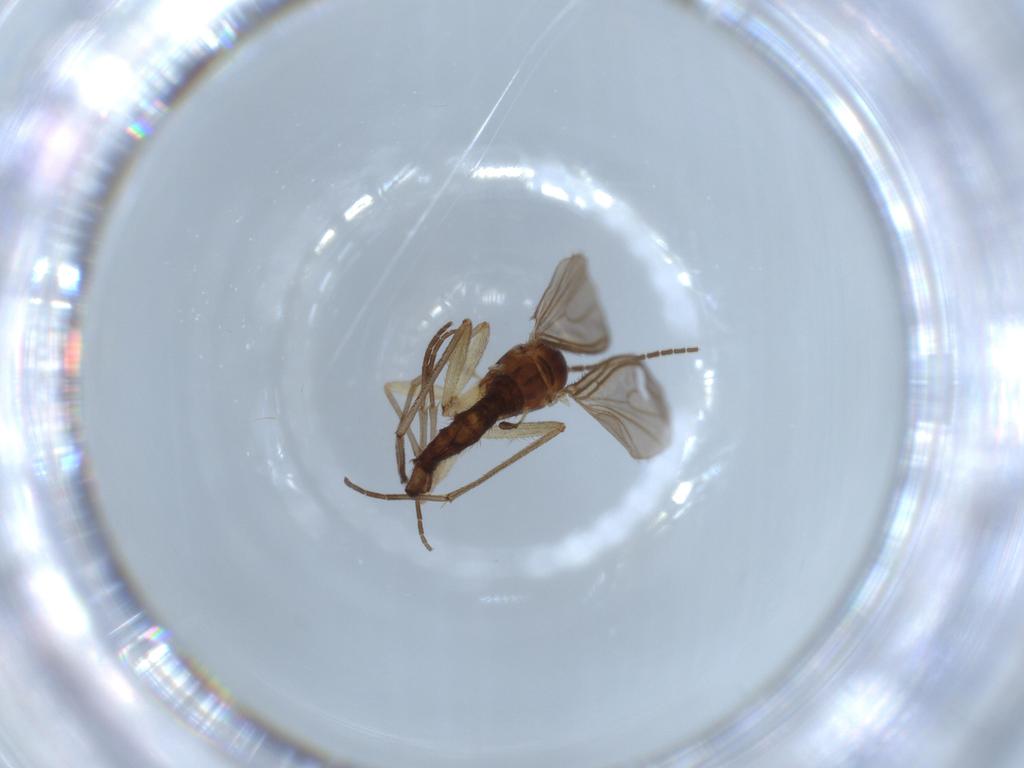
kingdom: Animalia
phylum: Arthropoda
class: Insecta
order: Diptera
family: Sciaridae
